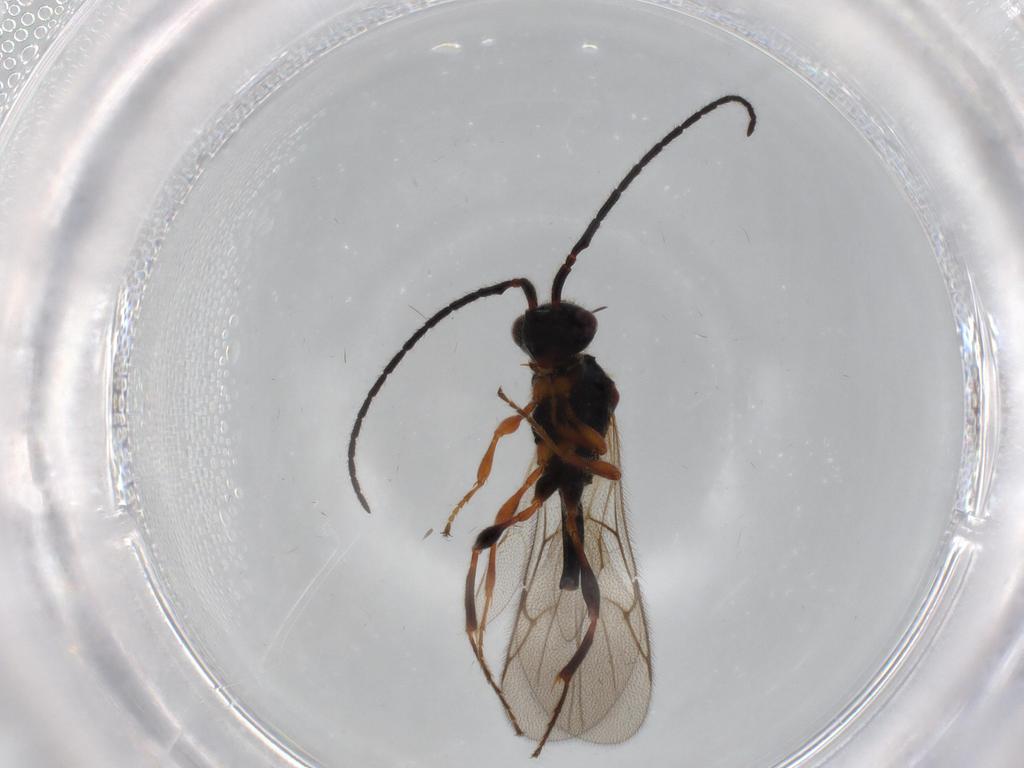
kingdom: Animalia
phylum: Arthropoda
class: Insecta
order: Hymenoptera
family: Diapriidae
